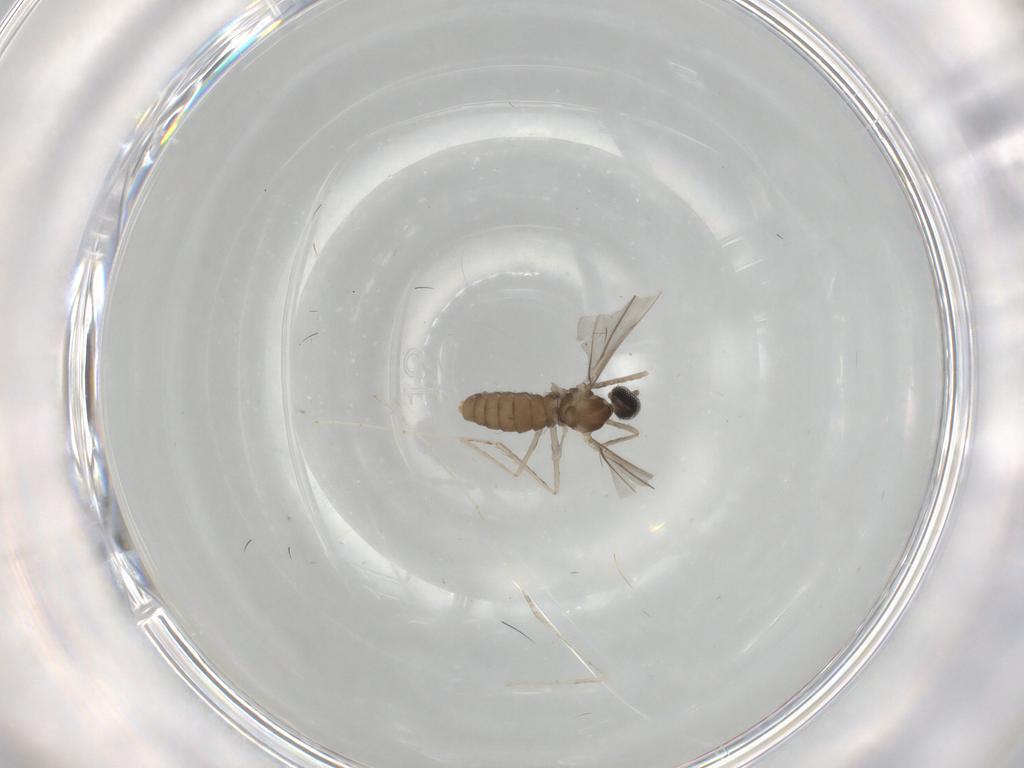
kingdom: Animalia
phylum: Arthropoda
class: Insecta
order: Diptera
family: Cecidomyiidae
